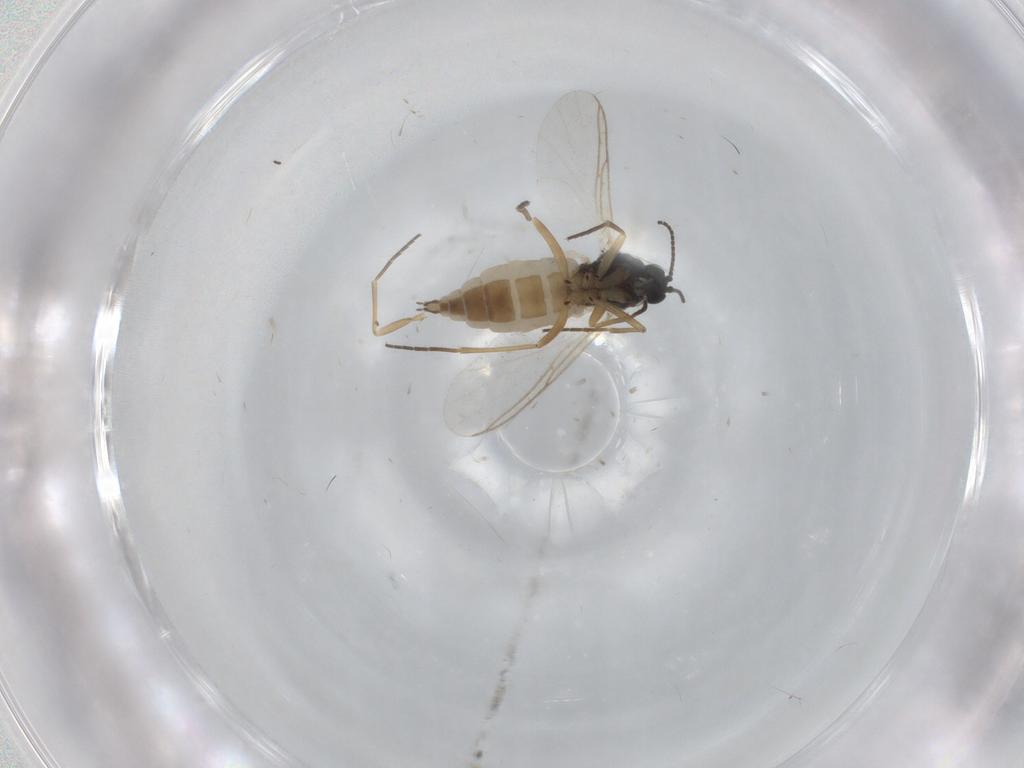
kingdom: Animalia
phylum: Arthropoda
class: Insecta
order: Diptera
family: Sciaridae
